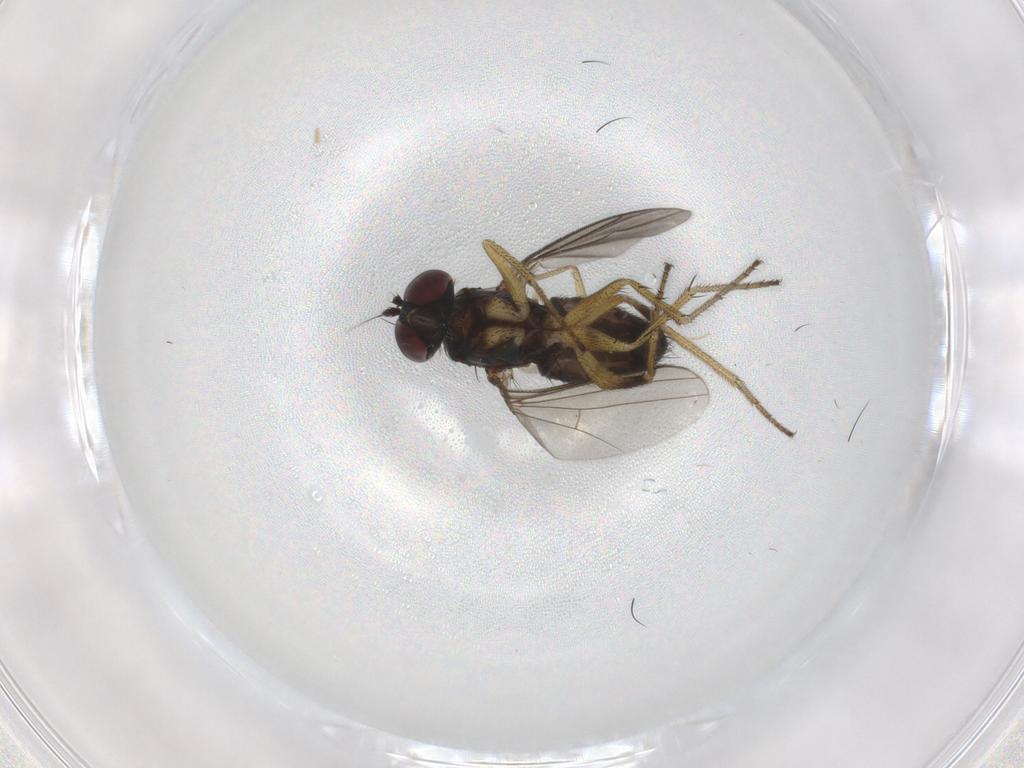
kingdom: Animalia
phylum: Arthropoda
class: Insecta
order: Diptera
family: Dolichopodidae
